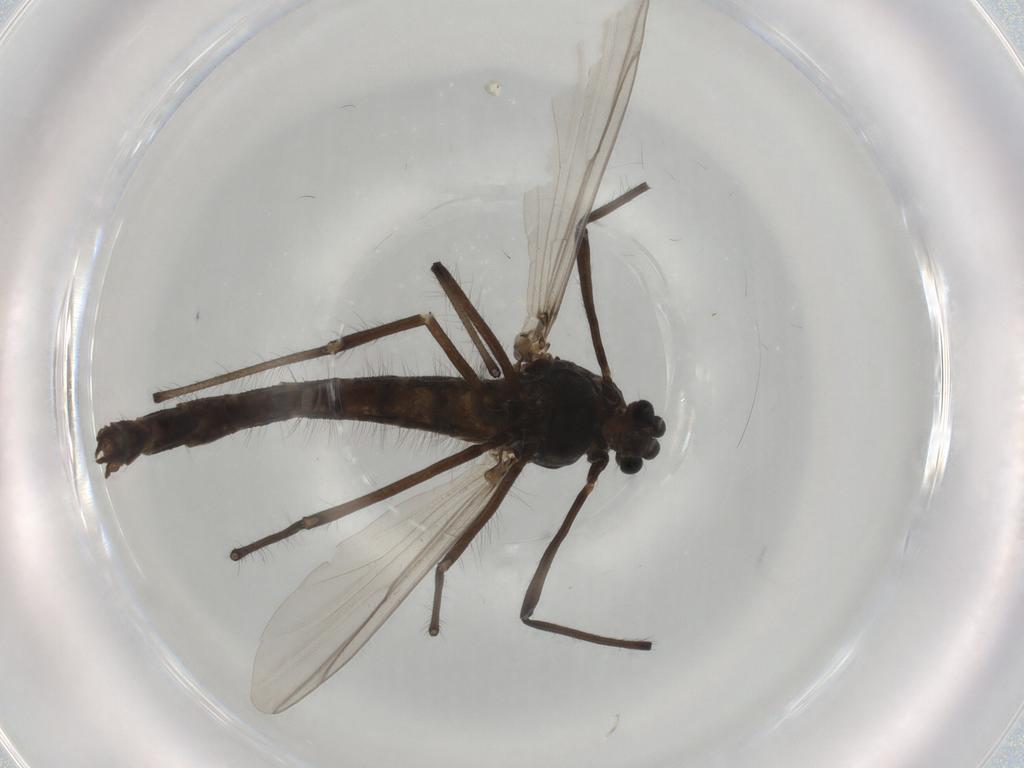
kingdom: Animalia
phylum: Arthropoda
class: Insecta
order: Diptera
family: Chironomidae
